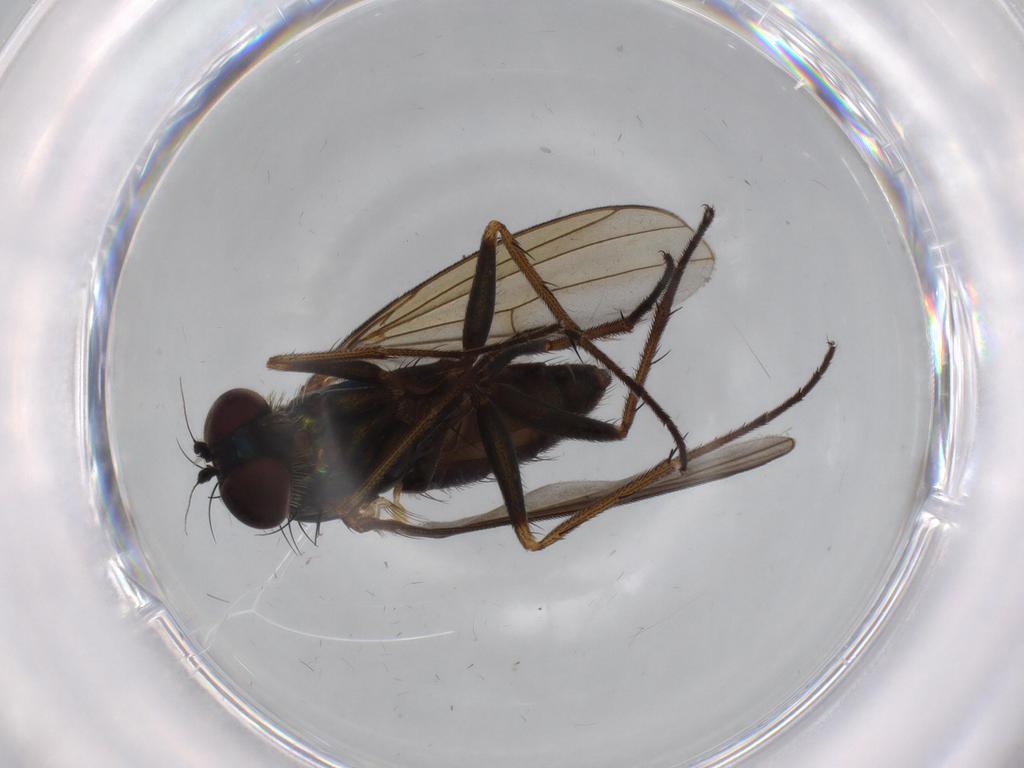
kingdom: Animalia
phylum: Arthropoda
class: Insecta
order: Diptera
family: Dolichopodidae
